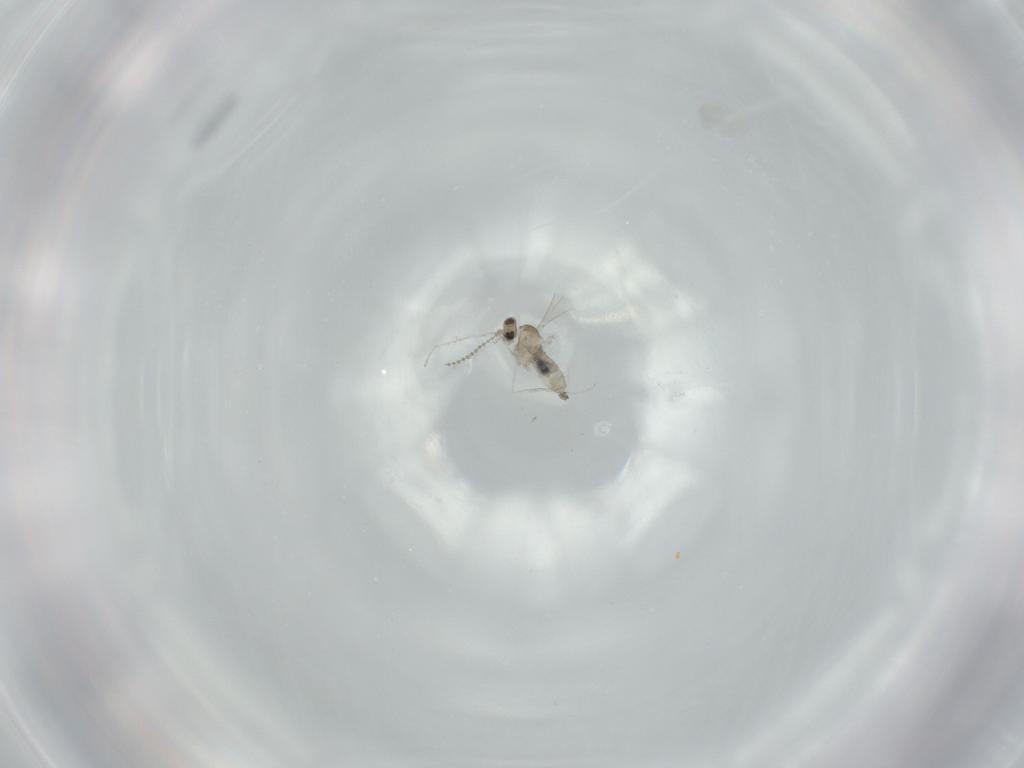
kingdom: Animalia
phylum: Arthropoda
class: Insecta
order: Diptera
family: Cecidomyiidae
